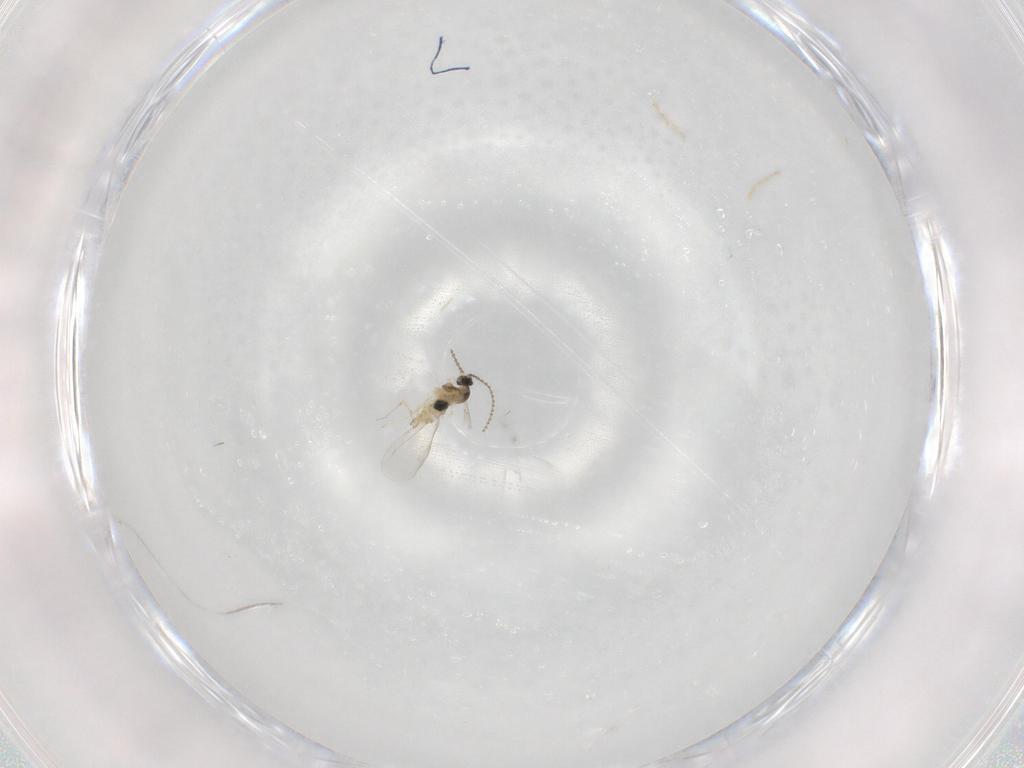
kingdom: Animalia
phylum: Arthropoda
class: Insecta
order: Diptera
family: Cecidomyiidae
